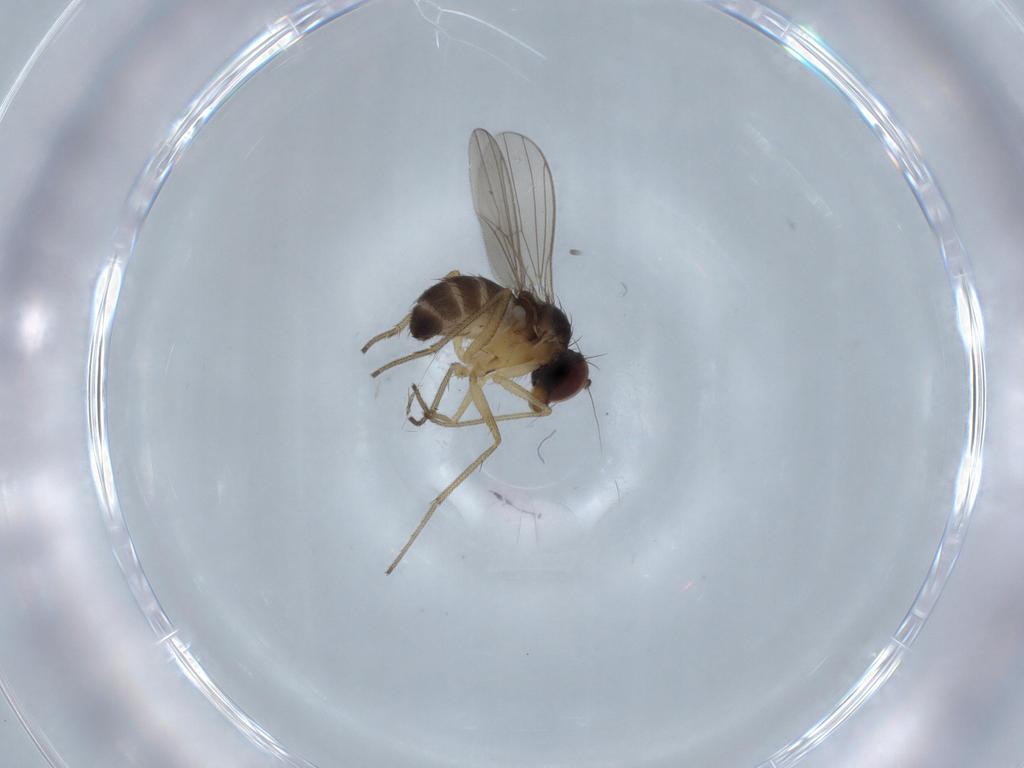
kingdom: Animalia
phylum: Arthropoda
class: Insecta
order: Diptera
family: Dolichopodidae
